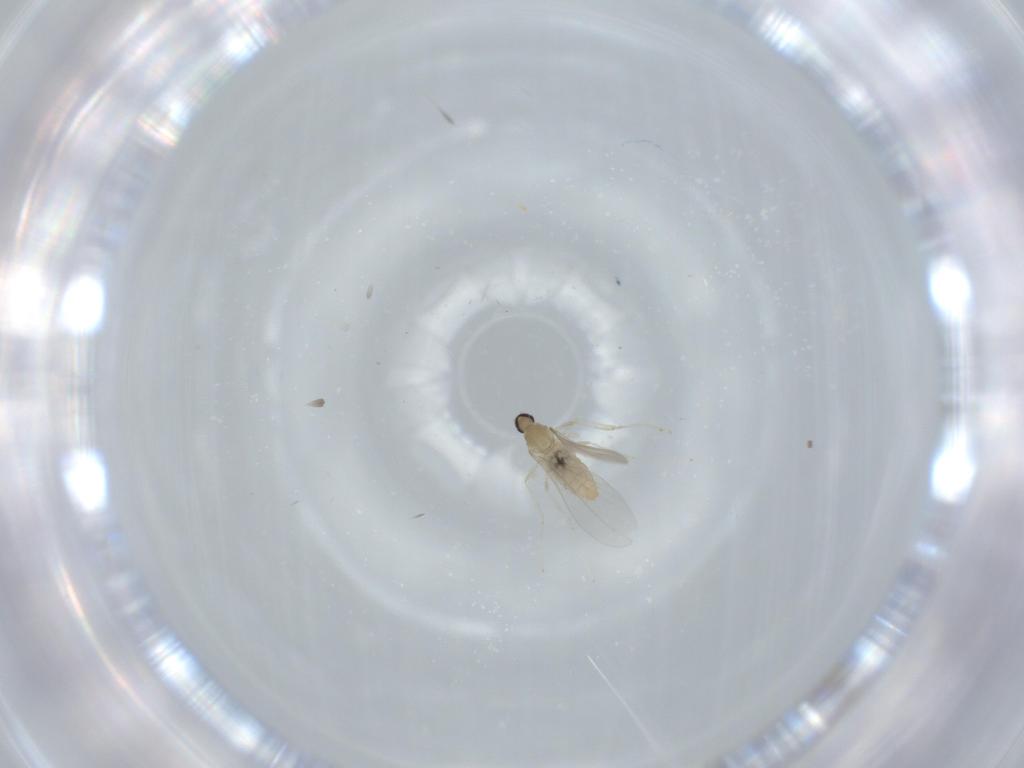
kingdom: Animalia
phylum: Arthropoda
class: Insecta
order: Diptera
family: Cecidomyiidae
